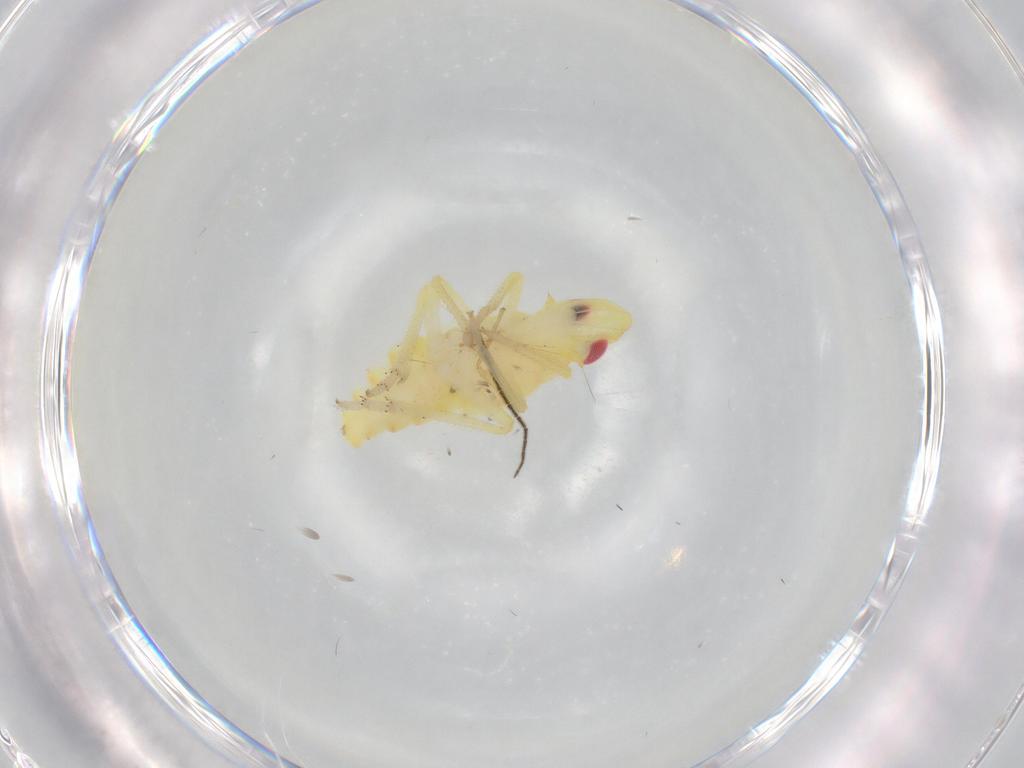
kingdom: Animalia
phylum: Arthropoda
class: Insecta
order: Hemiptera
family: Tropiduchidae
